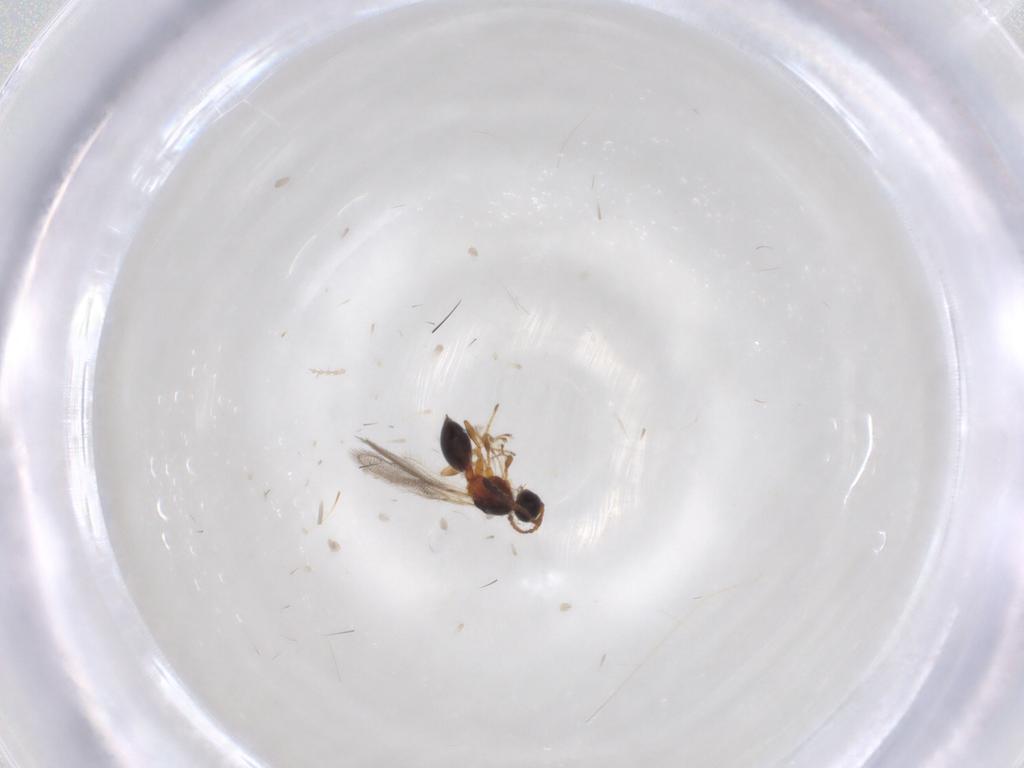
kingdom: Animalia
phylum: Arthropoda
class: Insecta
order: Hymenoptera
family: Diapriidae
